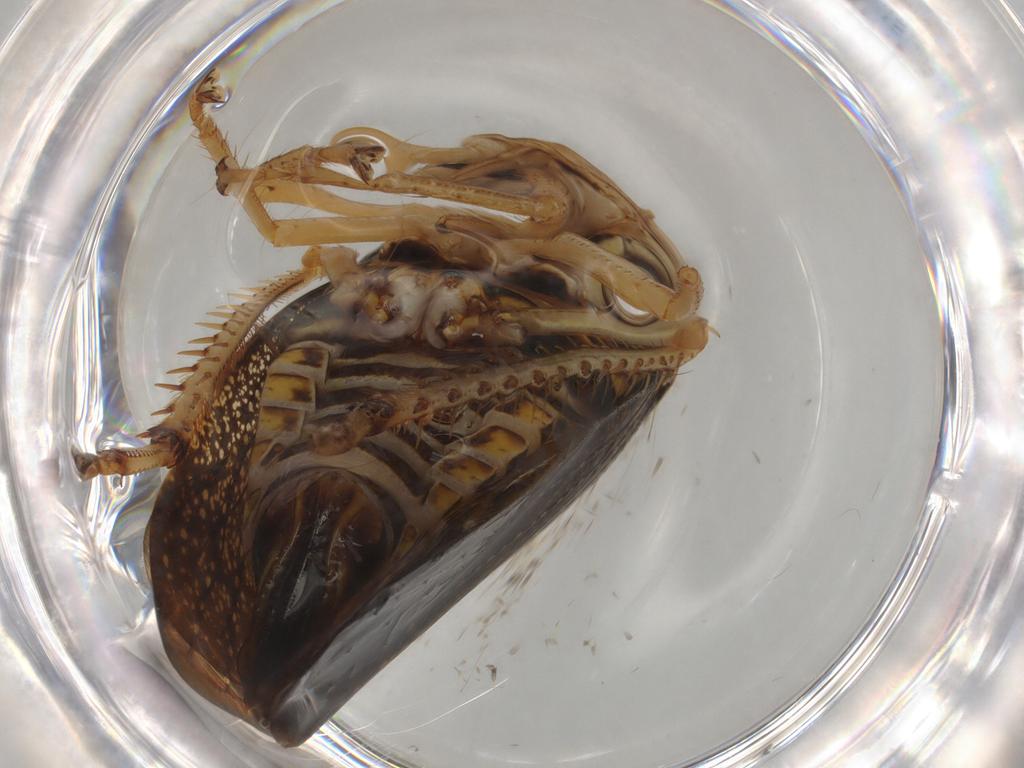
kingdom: Animalia
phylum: Arthropoda
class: Insecta
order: Hemiptera
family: Cicadellidae
